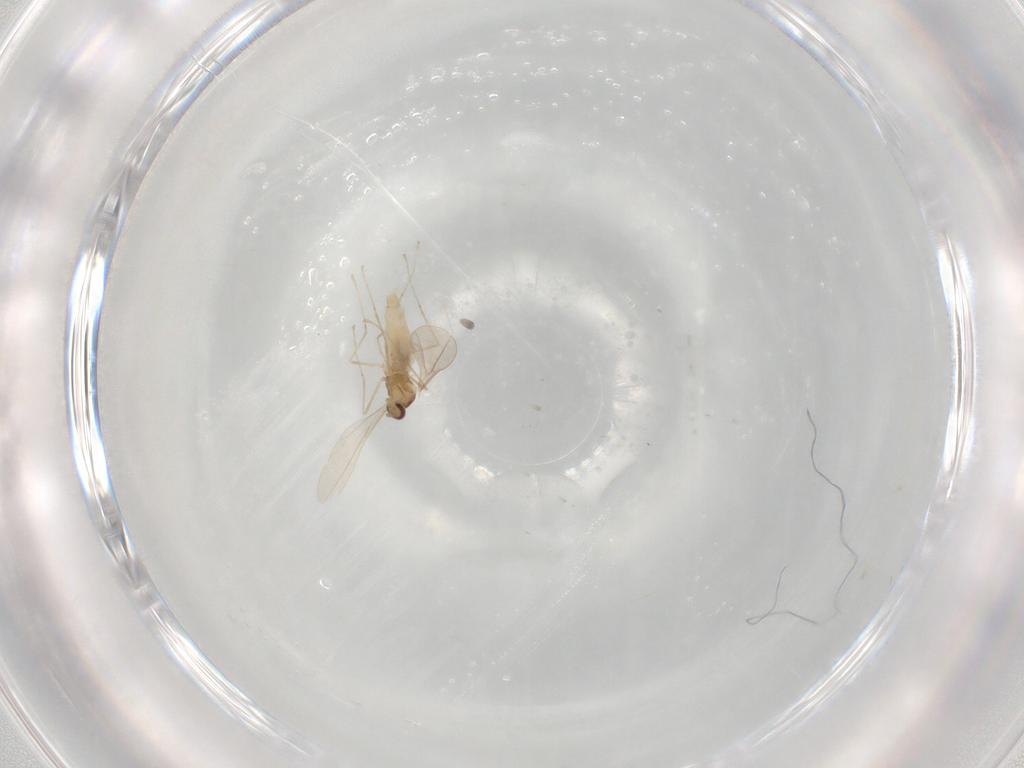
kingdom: Animalia
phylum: Arthropoda
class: Insecta
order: Diptera
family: Cecidomyiidae
